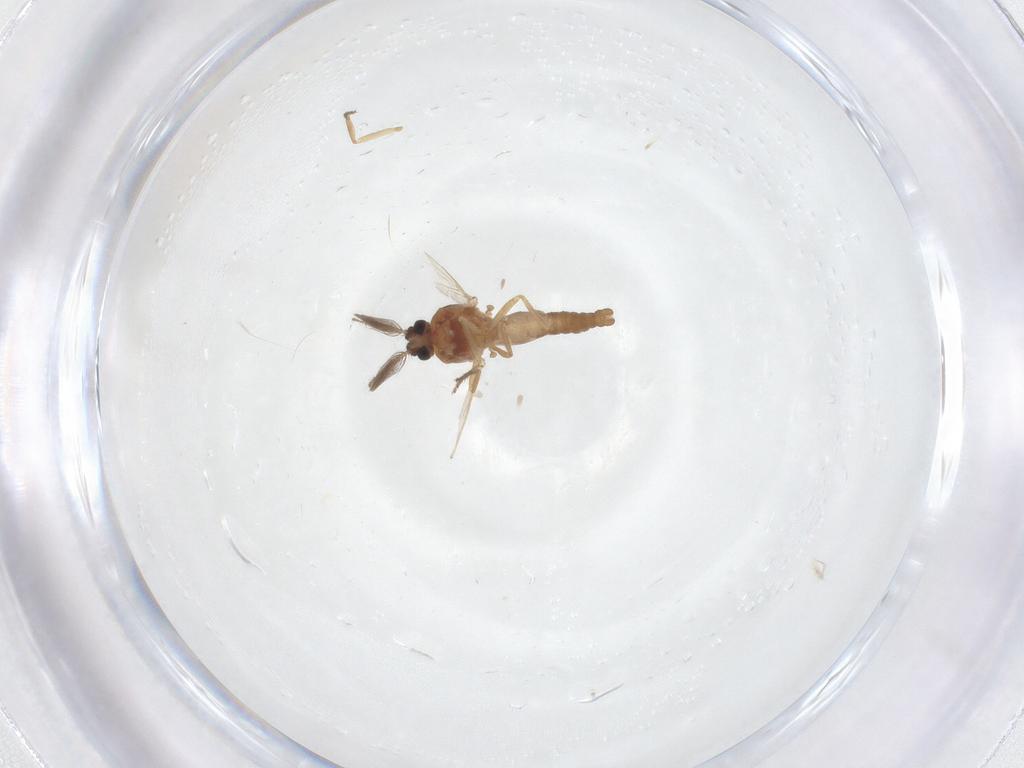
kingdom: Animalia
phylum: Arthropoda
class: Insecta
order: Diptera
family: Ceratopogonidae
